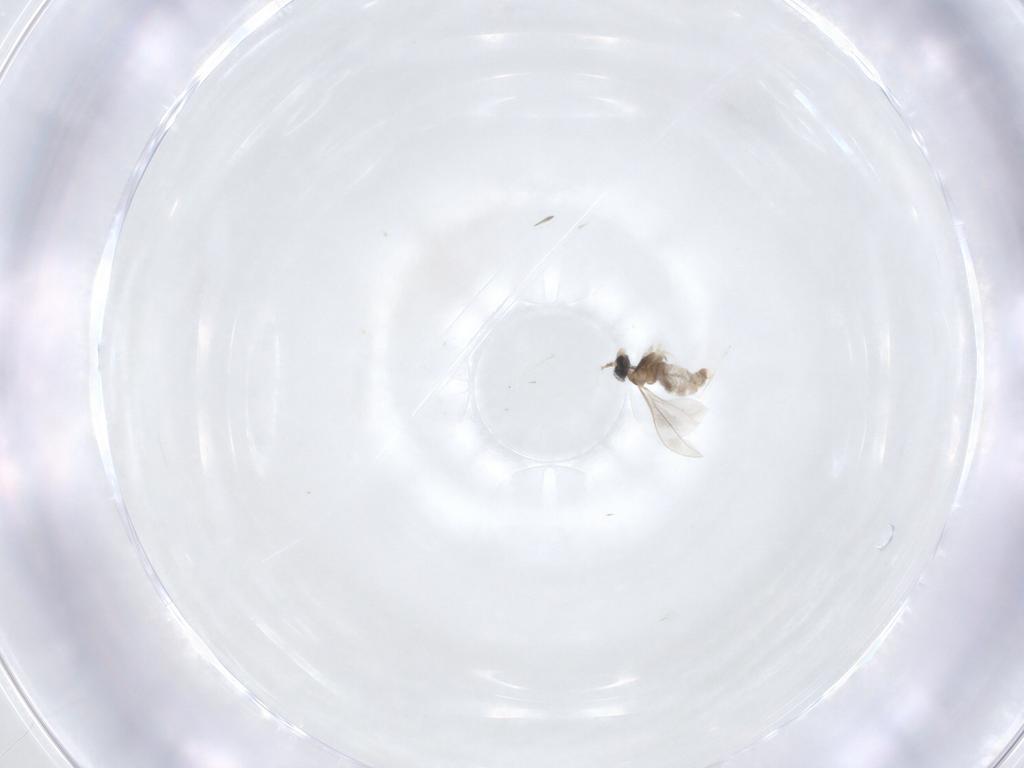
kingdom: Animalia
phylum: Arthropoda
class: Insecta
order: Diptera
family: Cecidomyiidae
